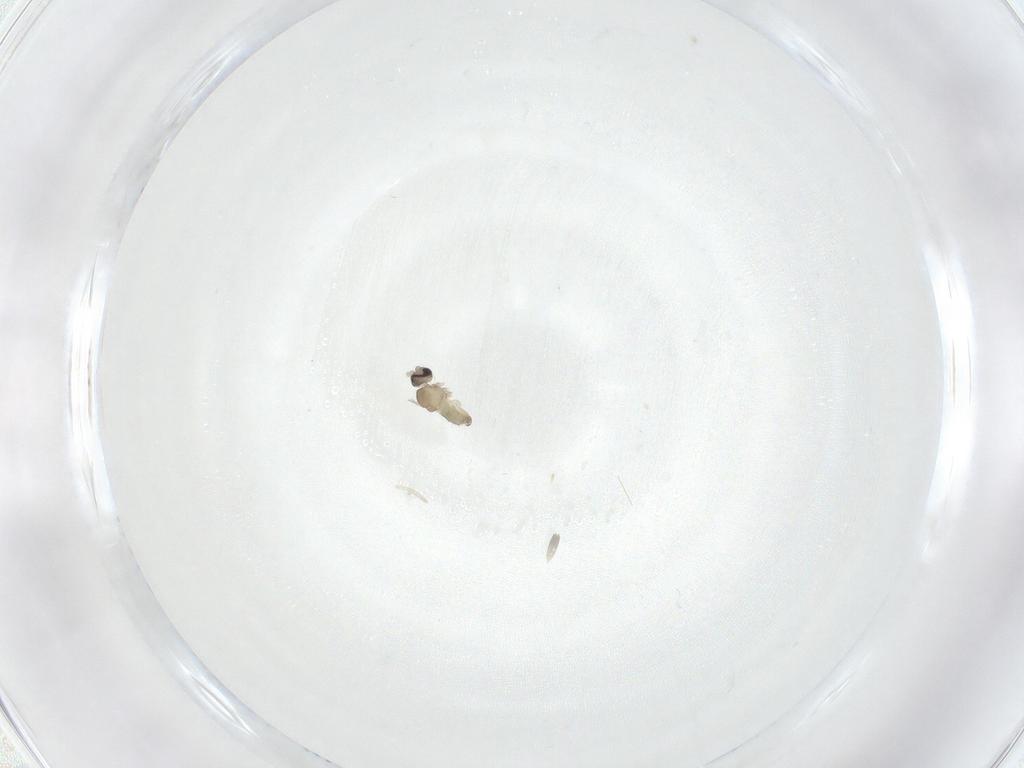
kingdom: Animalia
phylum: Arthropoda
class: Insecta
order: Diptera
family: Cecidomyiidae
